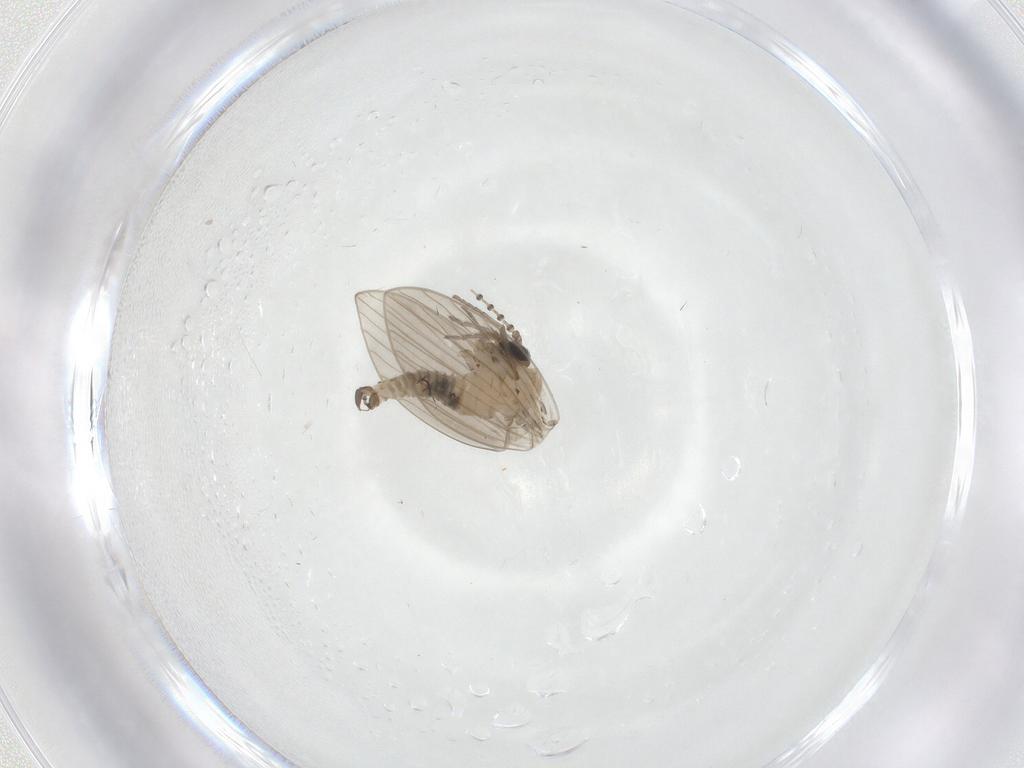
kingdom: Animalia
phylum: Arthropoda
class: Insecta
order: Diptera
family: Psychodidae
